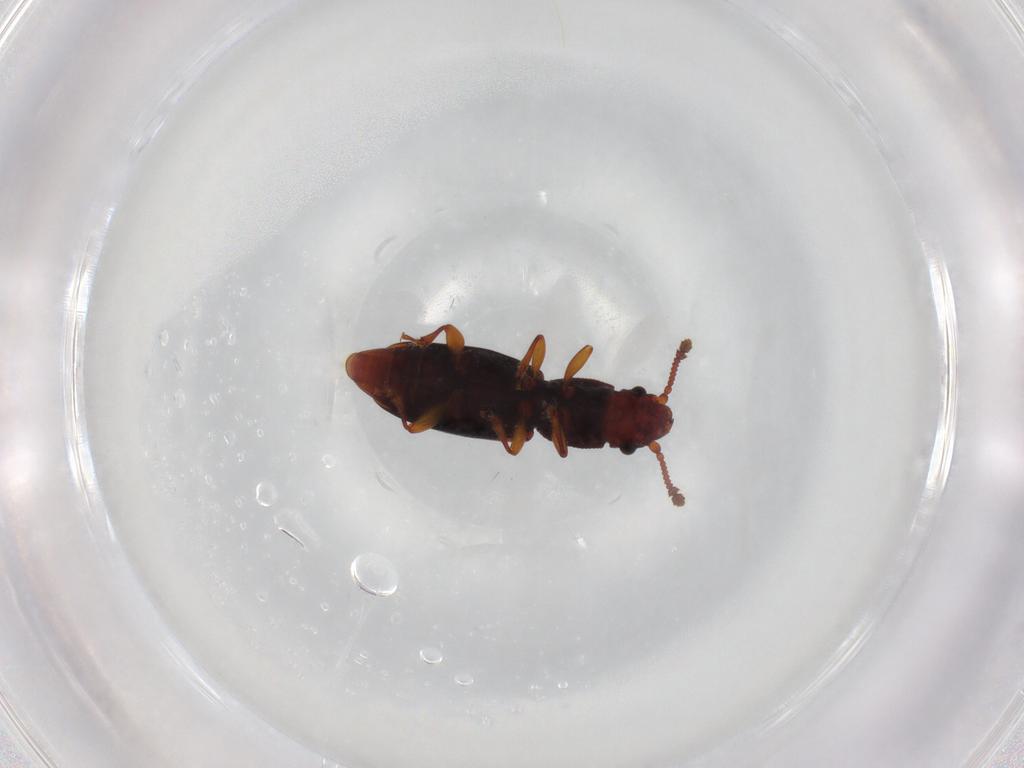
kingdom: Animalia
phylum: Arthropoda
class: Insecta
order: Coleoptera
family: Monotomidae
